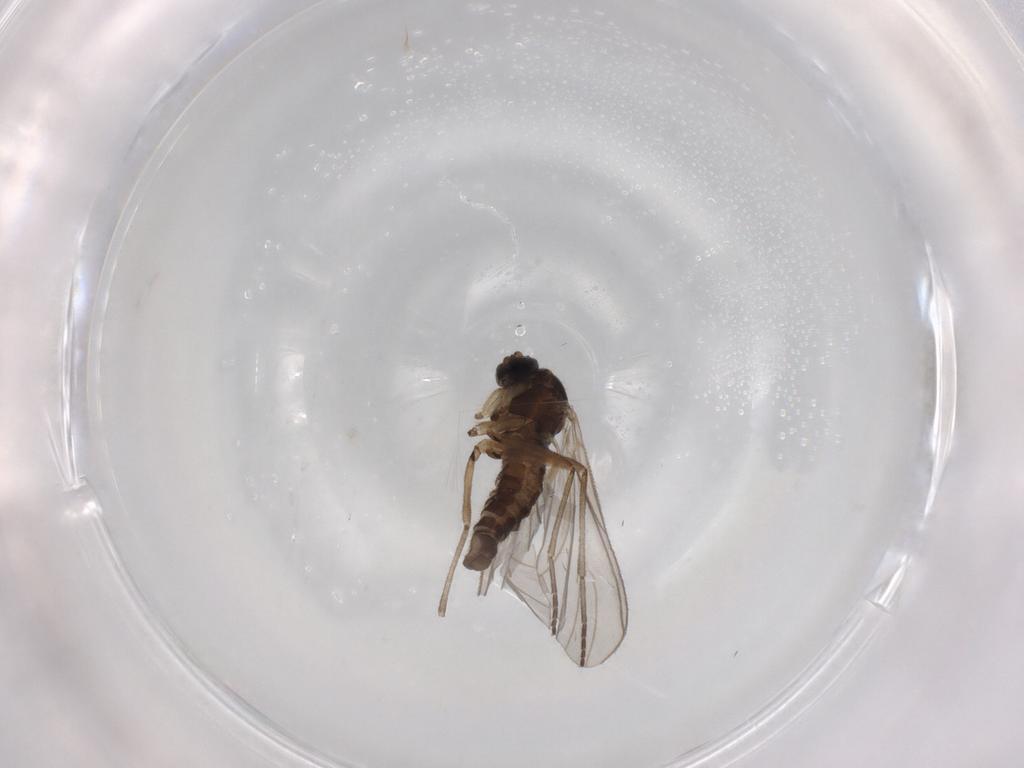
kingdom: Animalia
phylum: Arthropoda
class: Insecta
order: Diptera
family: Sciaridae
